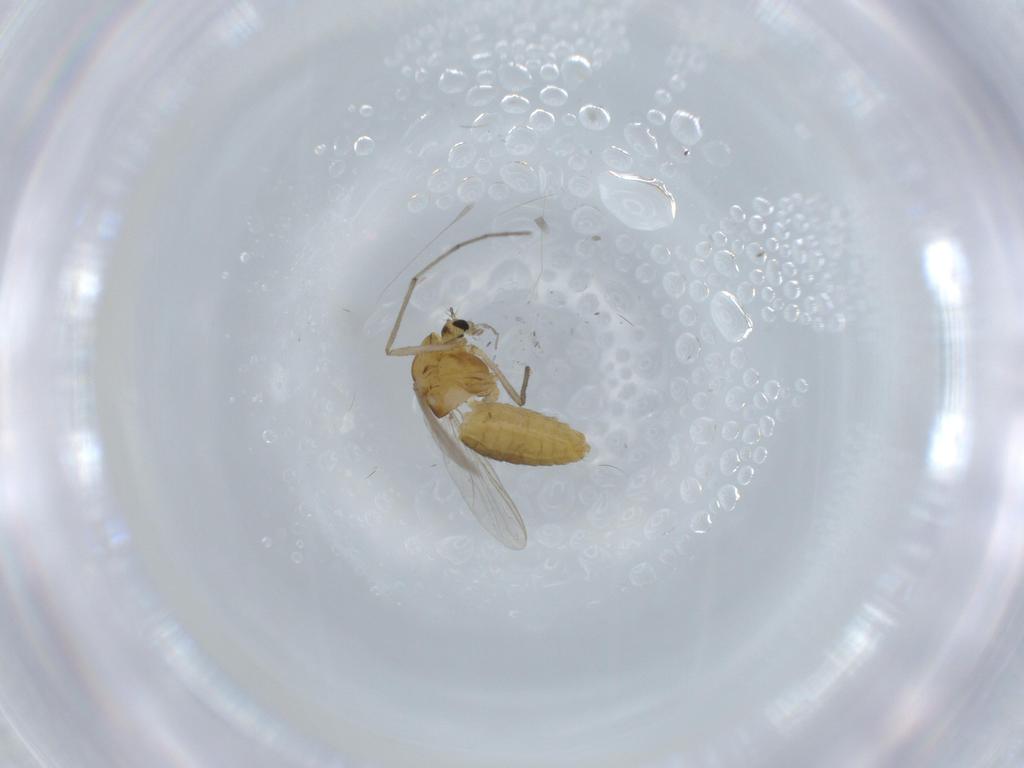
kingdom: Animalia
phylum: Arthropoda
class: Insecta
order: Diptera
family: Chironomidae
